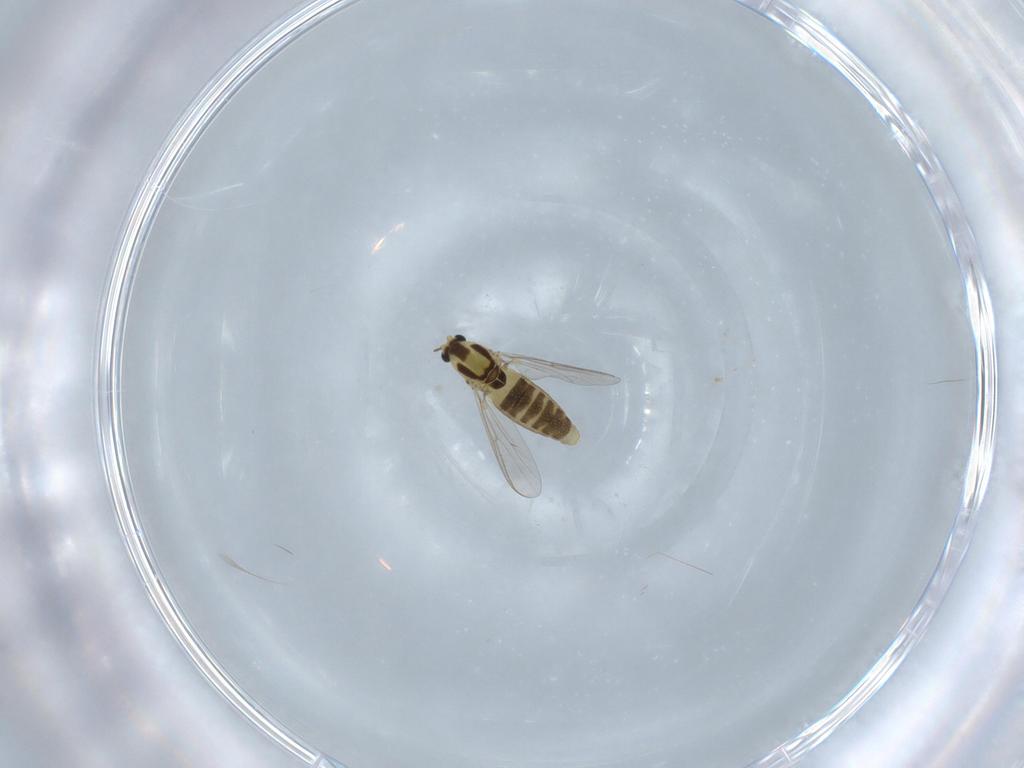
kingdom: Animalia
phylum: Arthropoda
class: Insecta
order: Diptera
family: Chironomidae
